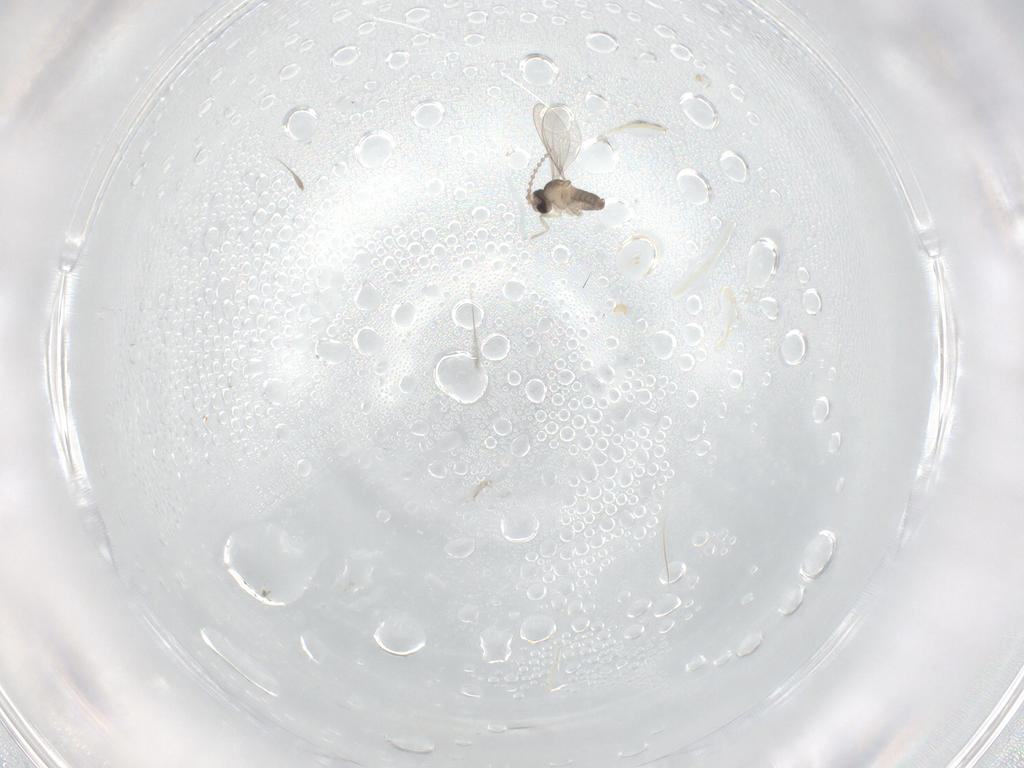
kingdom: Animalia
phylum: Arthropoda
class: Insecta
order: Diptera
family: Cecidomyiidae
